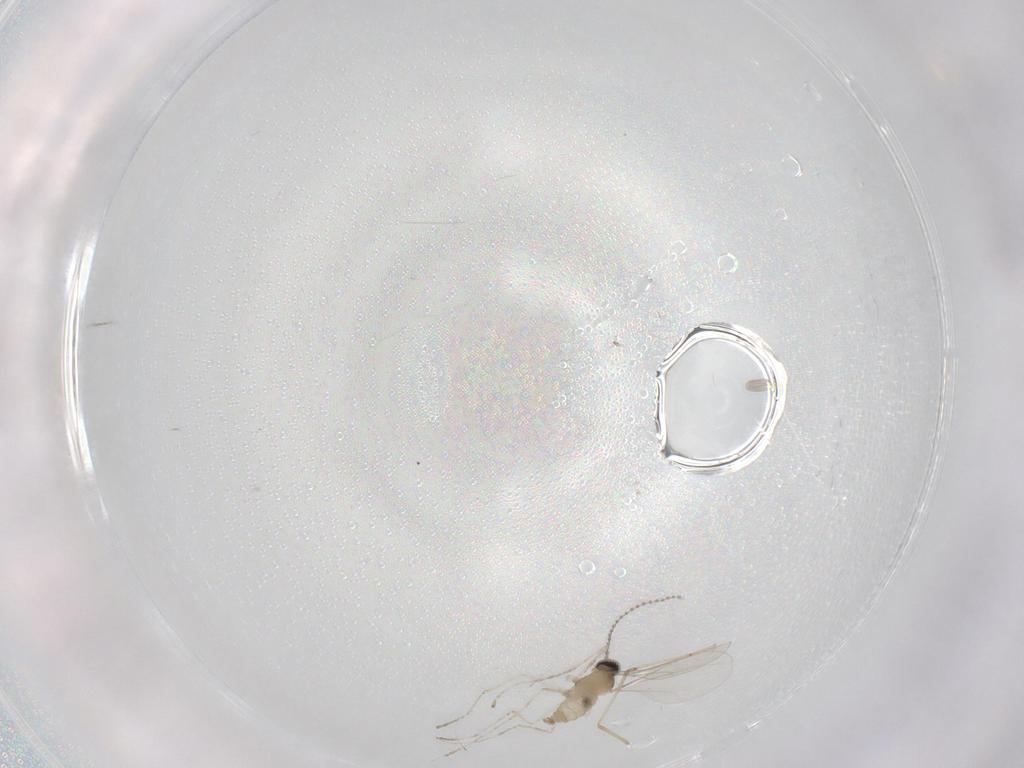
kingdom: Animalia
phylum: Arthropoda
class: Insecta
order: Diptera
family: Cecidomyiidae
